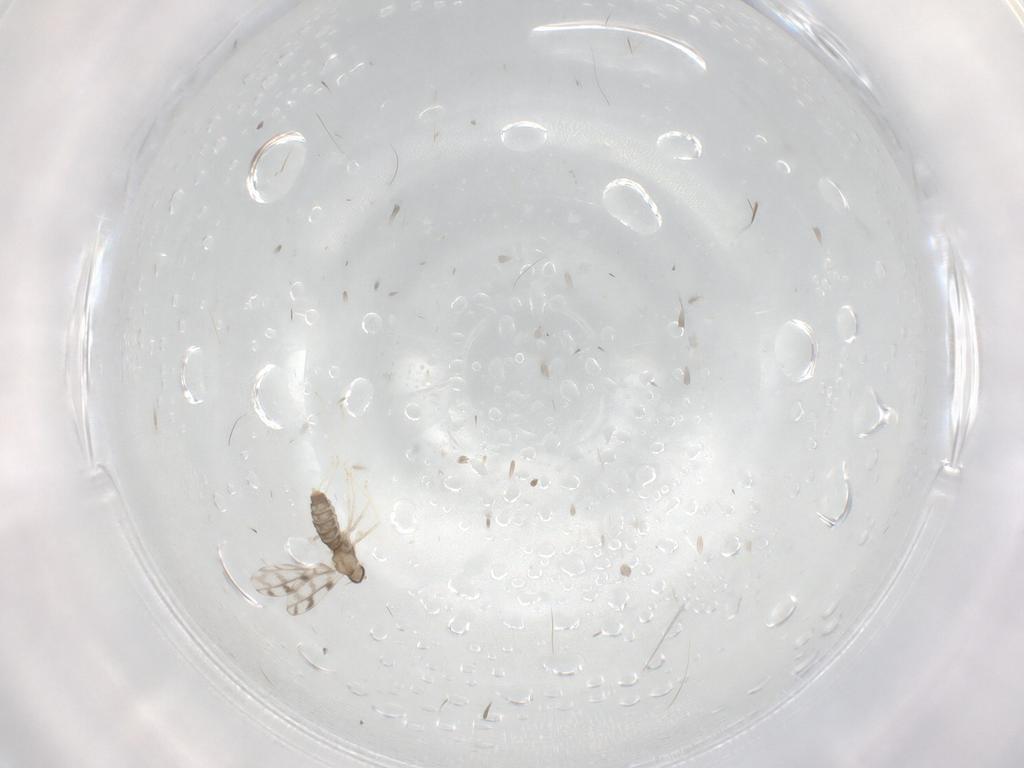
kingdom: Animalia
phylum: Arthropoda
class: Insecta
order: Diptera
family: Cecidomyiidae
